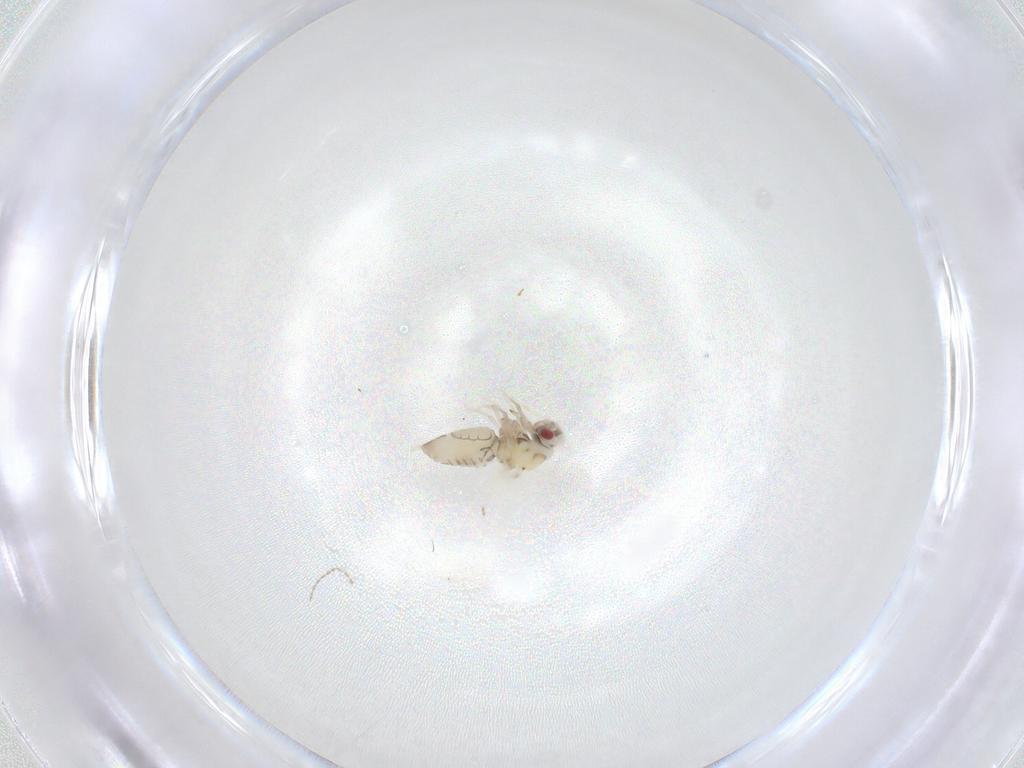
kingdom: Animalia
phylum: Arthropoda
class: Insecta
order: Hemiptera
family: Aleyrodidae
